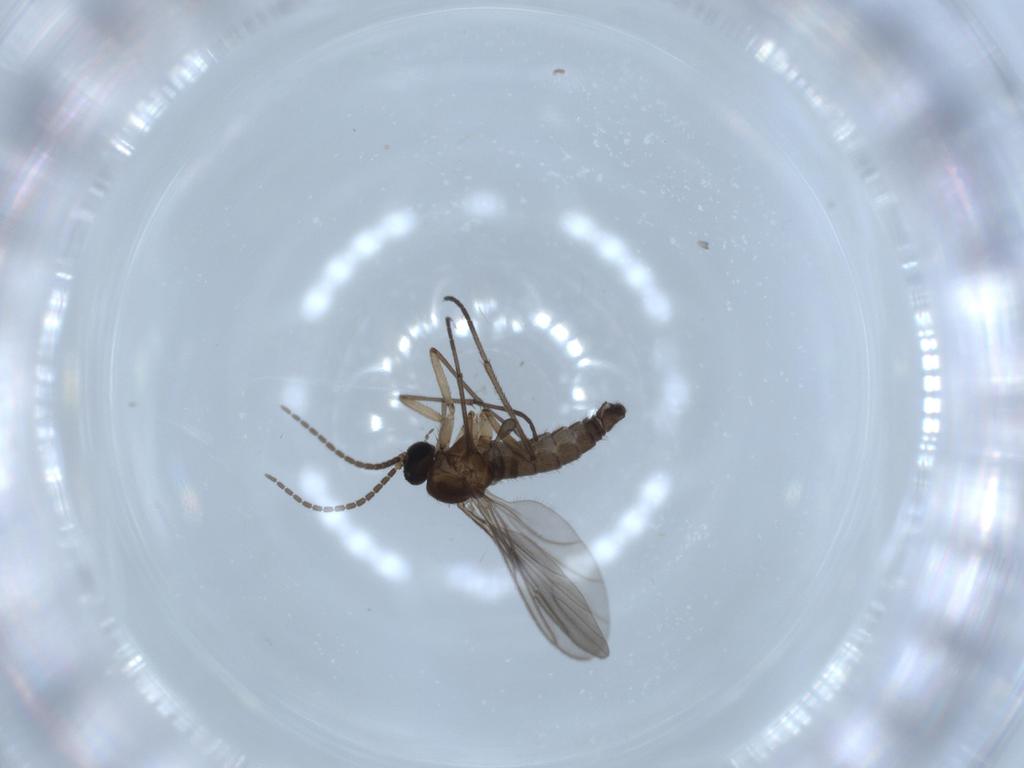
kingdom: Animalia
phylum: Arthropoda
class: Insecta
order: Diptera
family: Sciaridae
